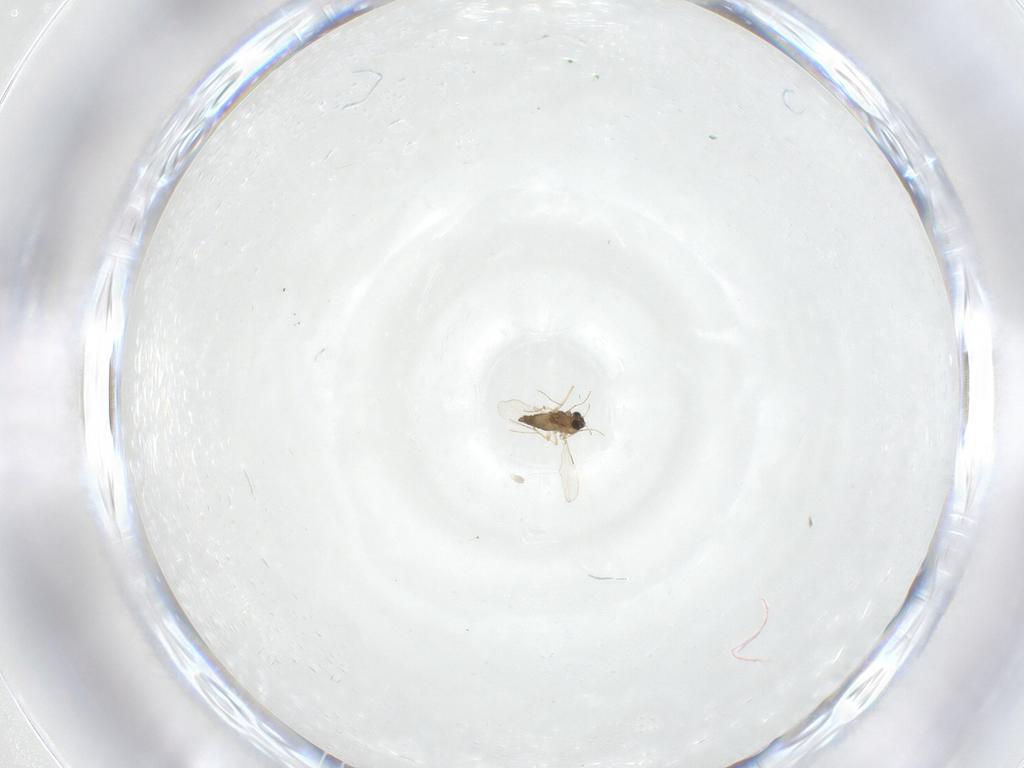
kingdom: Animalia
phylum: Arthropoda
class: Insecta
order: Diptera
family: Chironomidae
